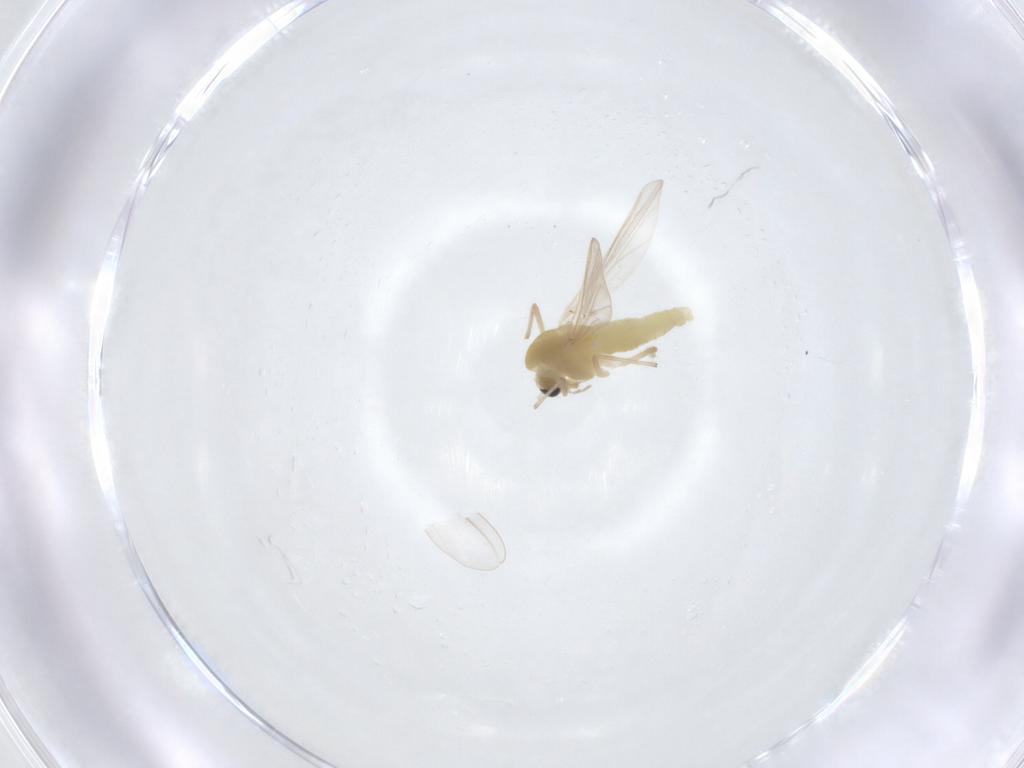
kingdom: Animalia
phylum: Arthropoda
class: Insecta
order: Diptera
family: Chironomidae
